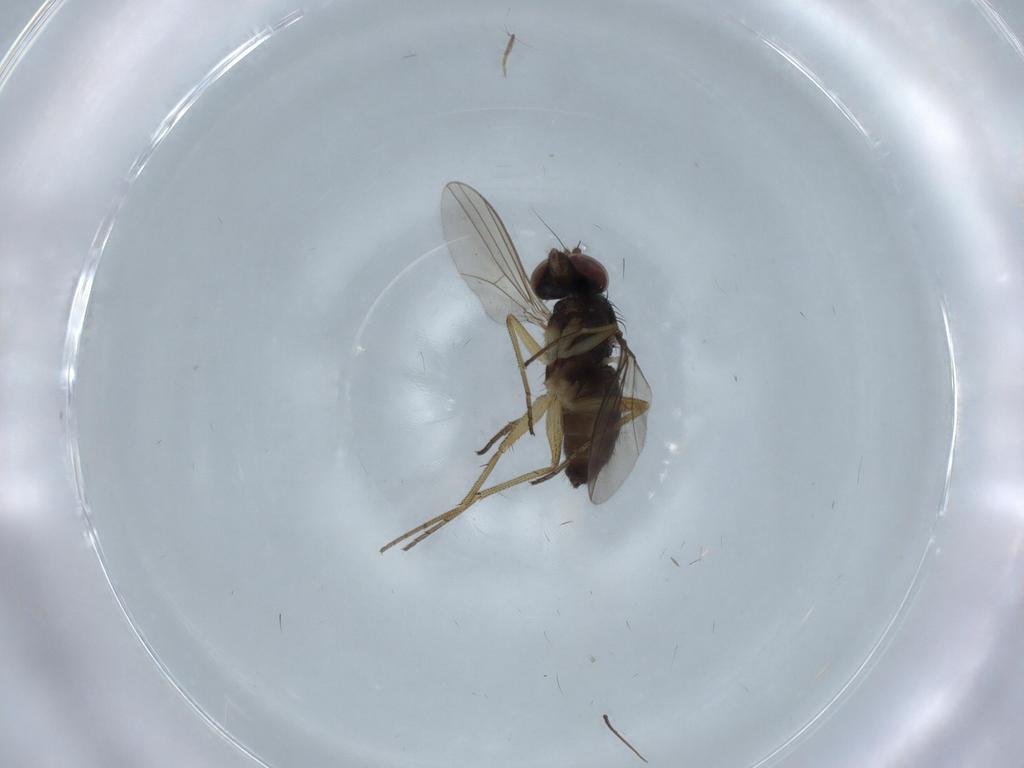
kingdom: Animalia
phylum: Arthropoda
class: Insecta
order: Diptera
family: Dolichopodidae
